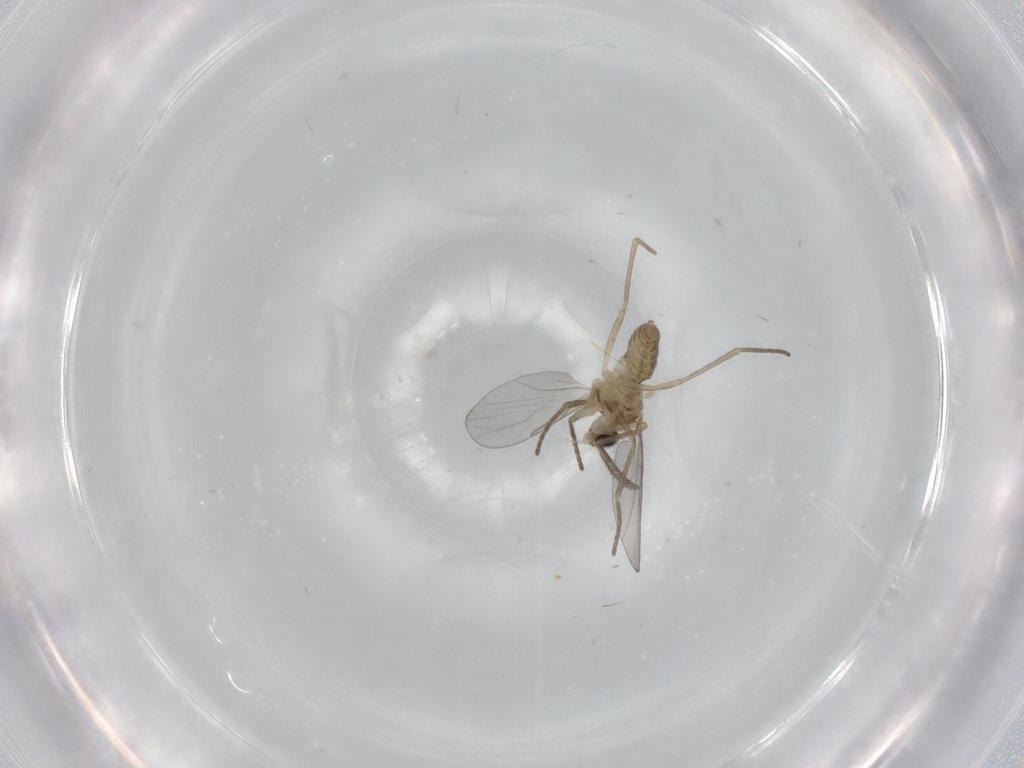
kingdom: Animalia
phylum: Arthropoda
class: Insecta
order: Diptera
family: Cecidomyiidae
